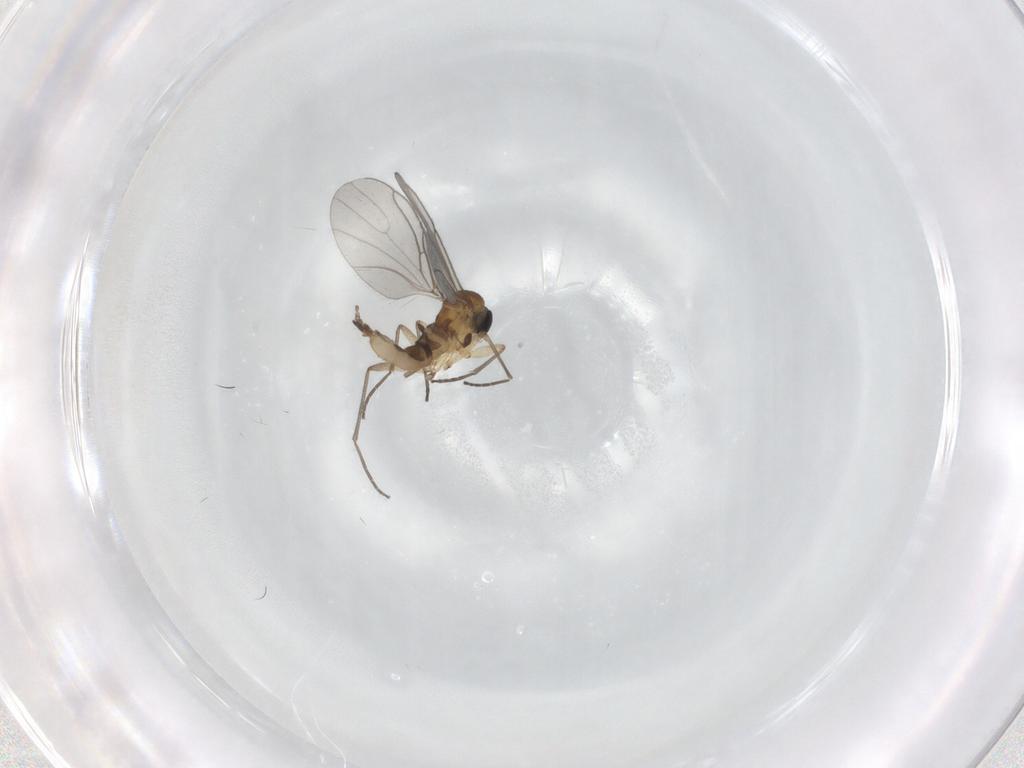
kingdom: Animalia
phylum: Arthropoda
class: Insecta
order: Diptera
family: Sciaridae
